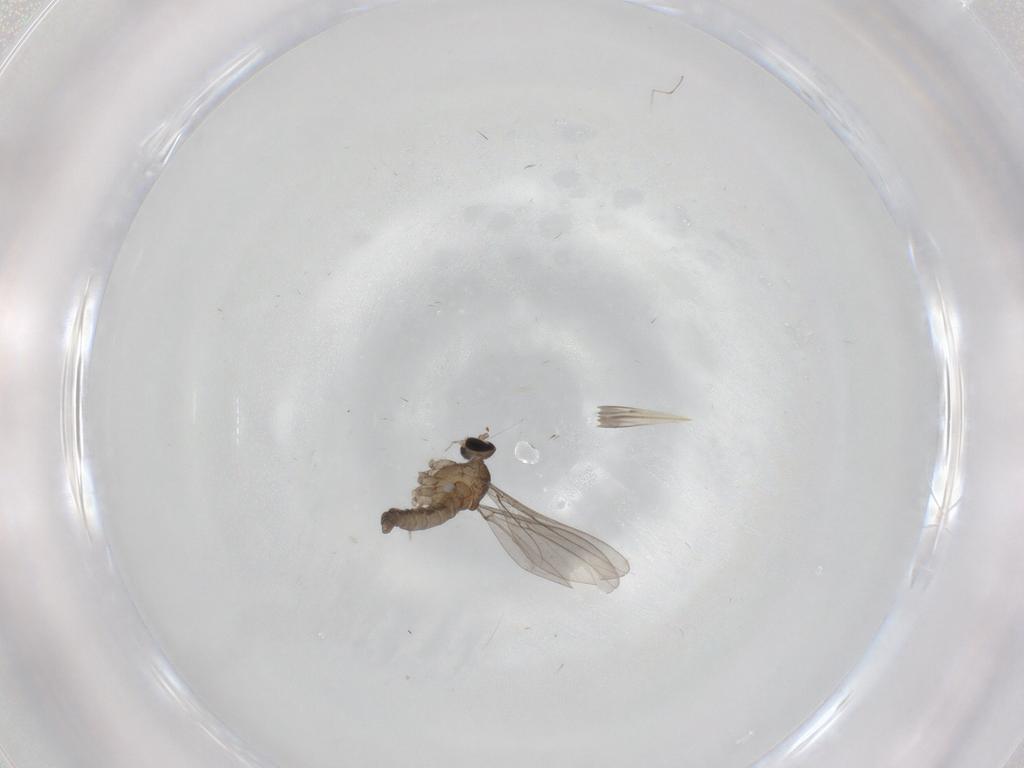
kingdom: Animalia
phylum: Arthropoda
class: Insecta
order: Diptera
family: Cecidomyiidae
